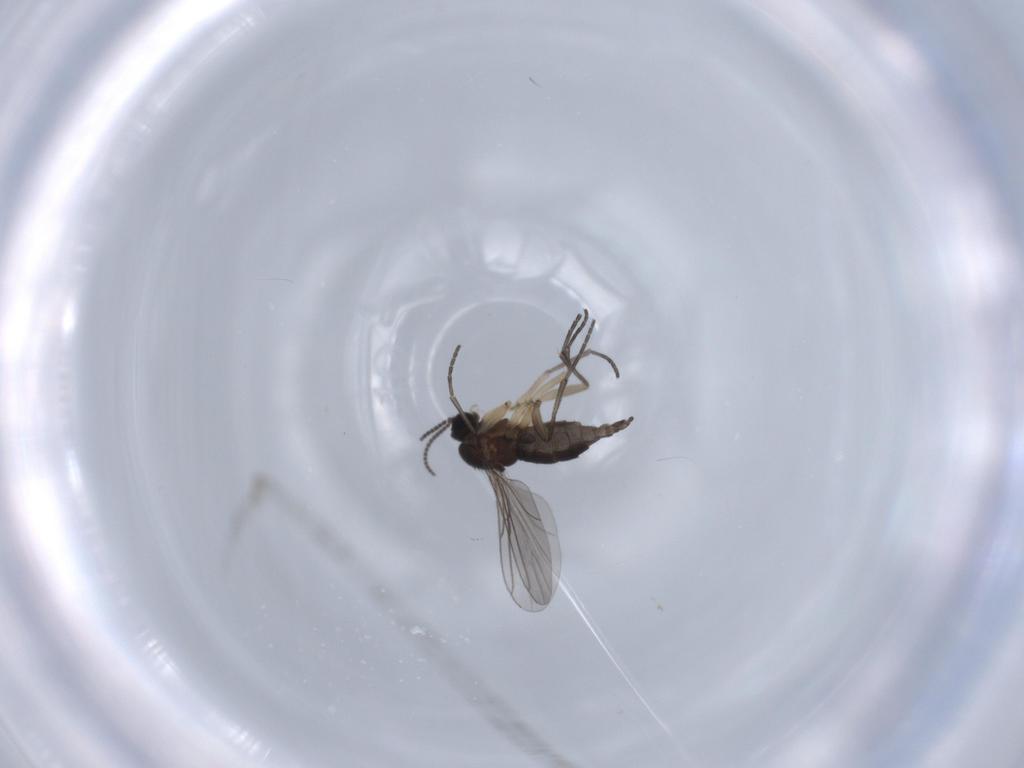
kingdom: Animalia
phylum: Arthropoda
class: Insecta
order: Diptera
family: Sciaridae
